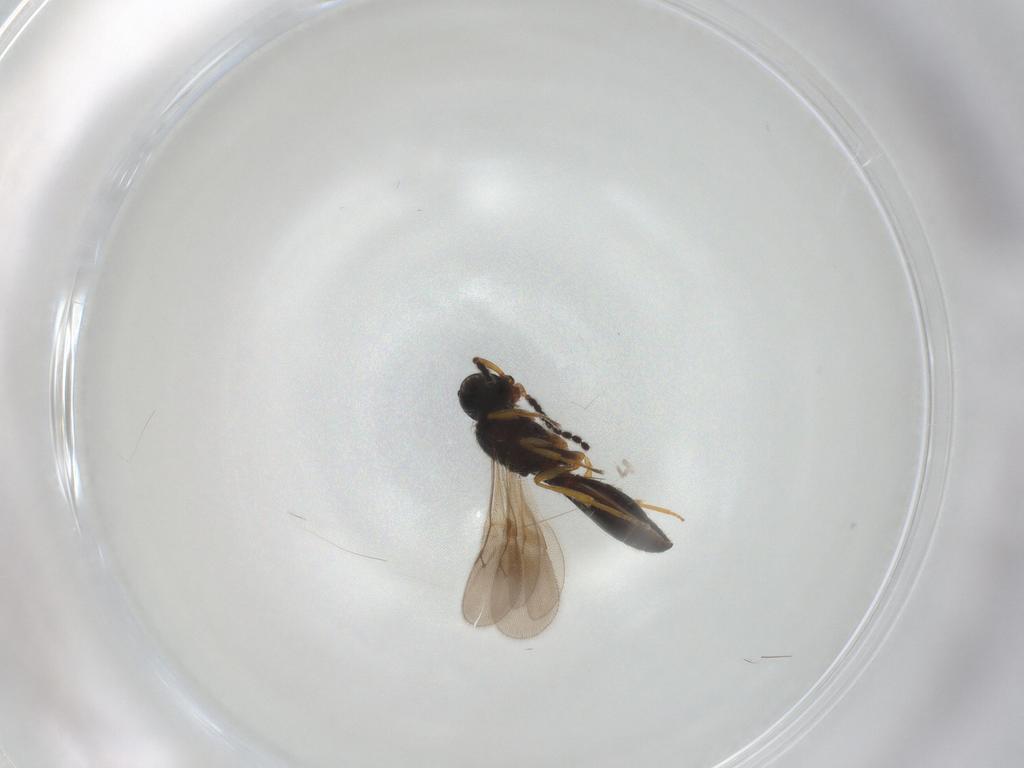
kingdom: Animalia
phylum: Arthropoda
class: Insecta
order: Hymenoptera
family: Scelionidae
